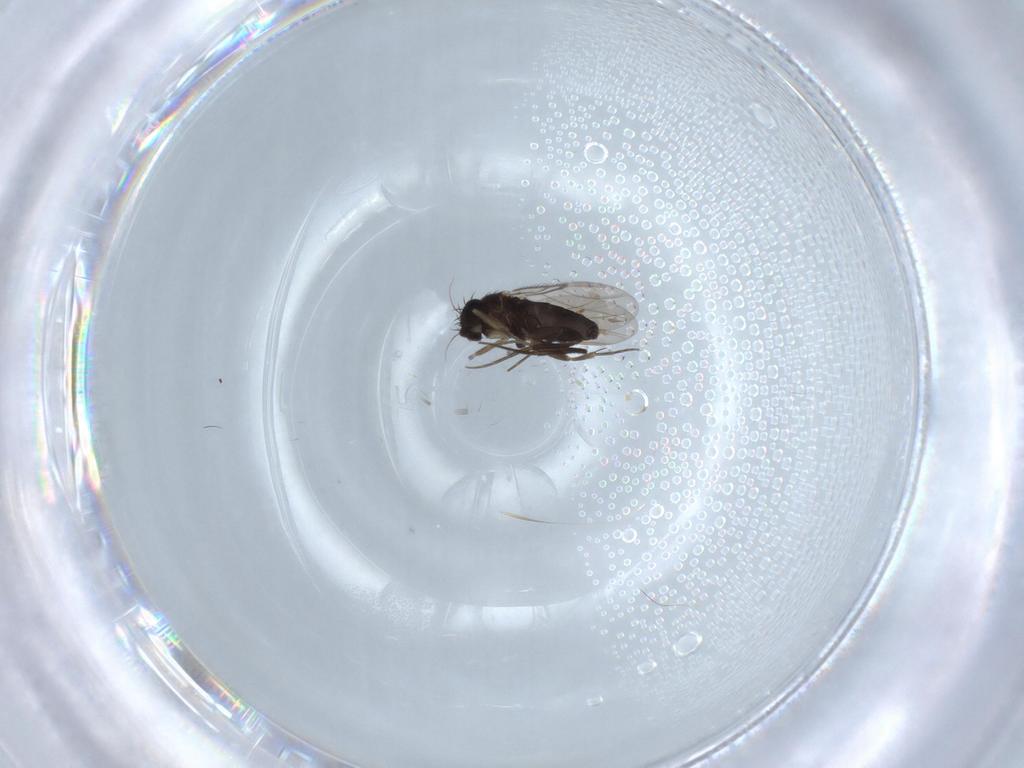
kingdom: Animalia
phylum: Arthropoda
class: Insecta
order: Diptera
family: Phoridae
